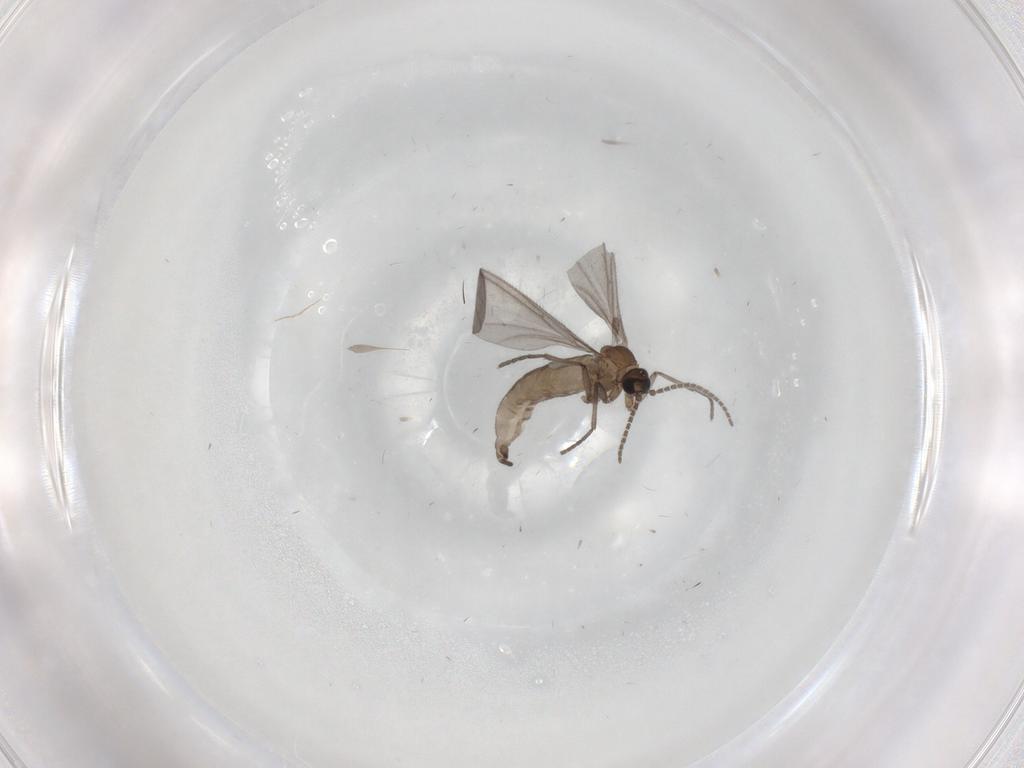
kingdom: Animalia
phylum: Arthropoda
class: Insecta
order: Diptera
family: Sciaridae
